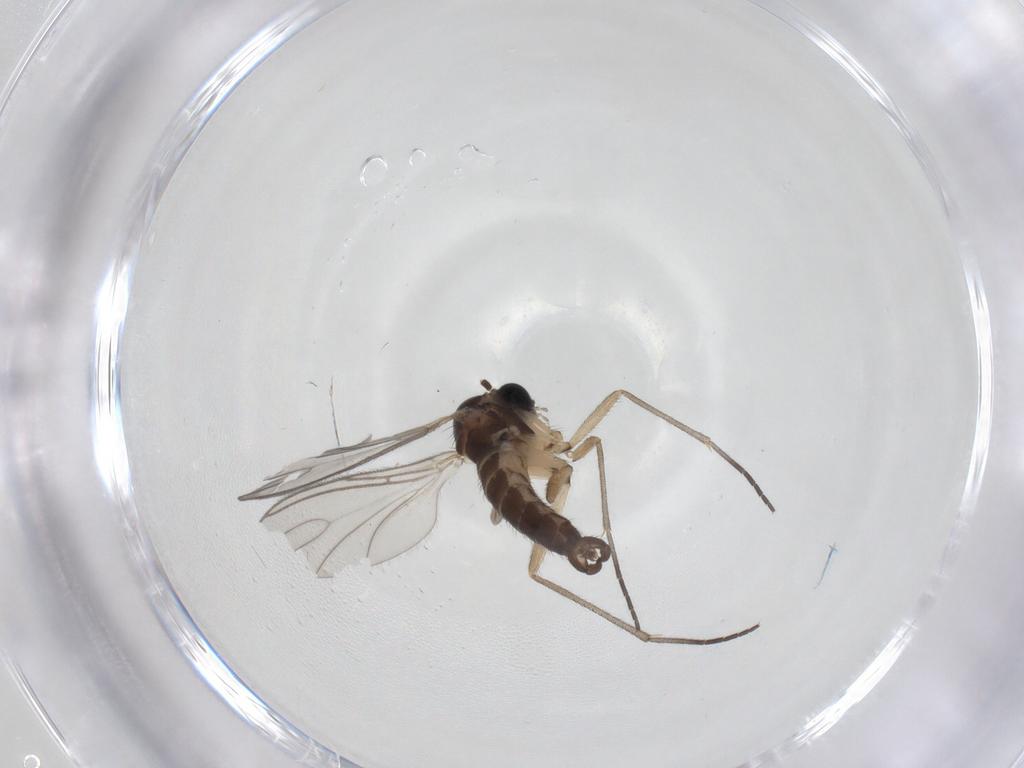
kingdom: Animalia
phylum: Arthropoda
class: Insecta
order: Diptera
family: Sciaridae
